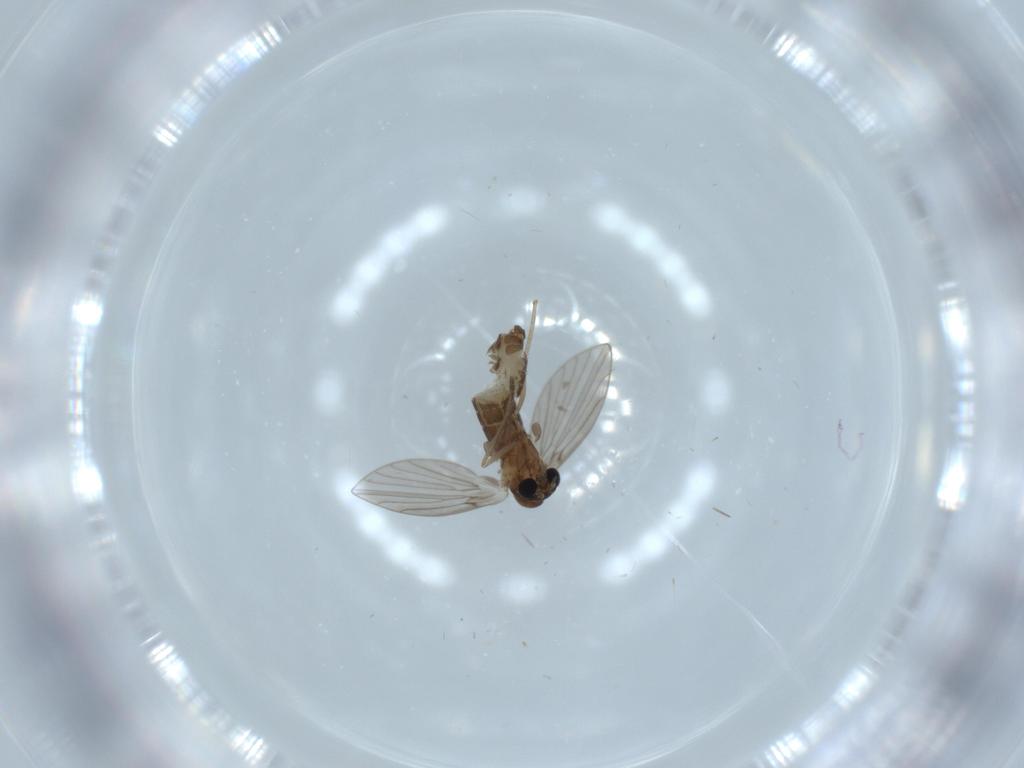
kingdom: Animalia
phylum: Arthropoda
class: Insecta
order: Diptera
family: Psychodidae
